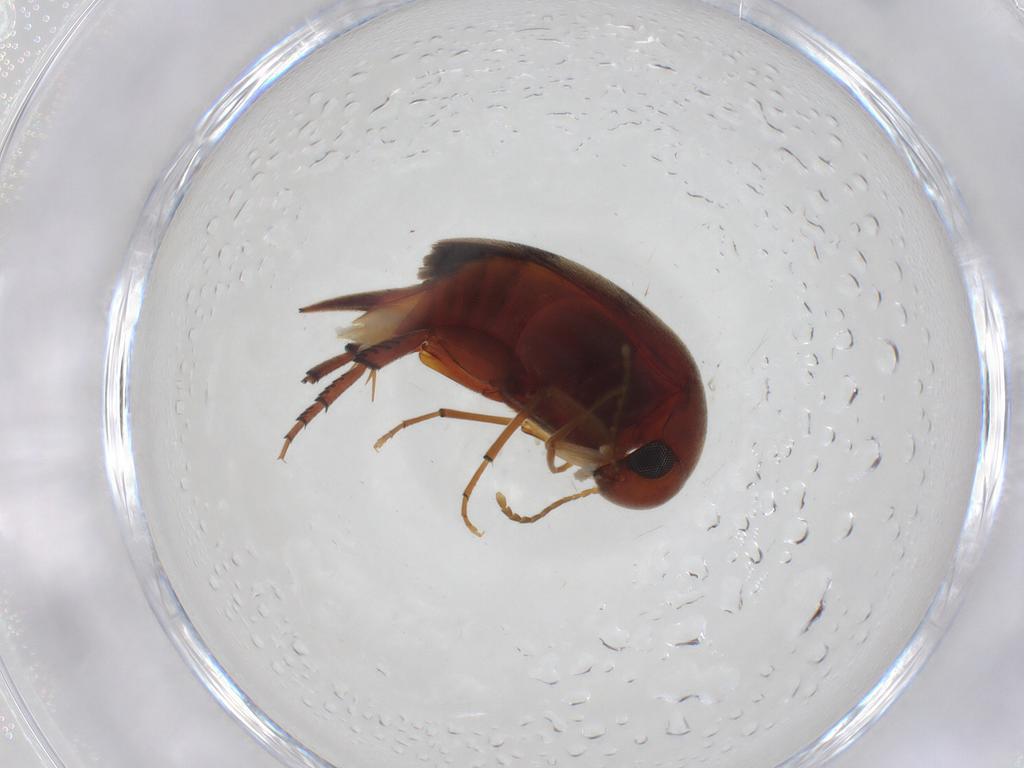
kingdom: Animalia
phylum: Arthropoda
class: Insecta
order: Coleoptera
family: Mordellidae
